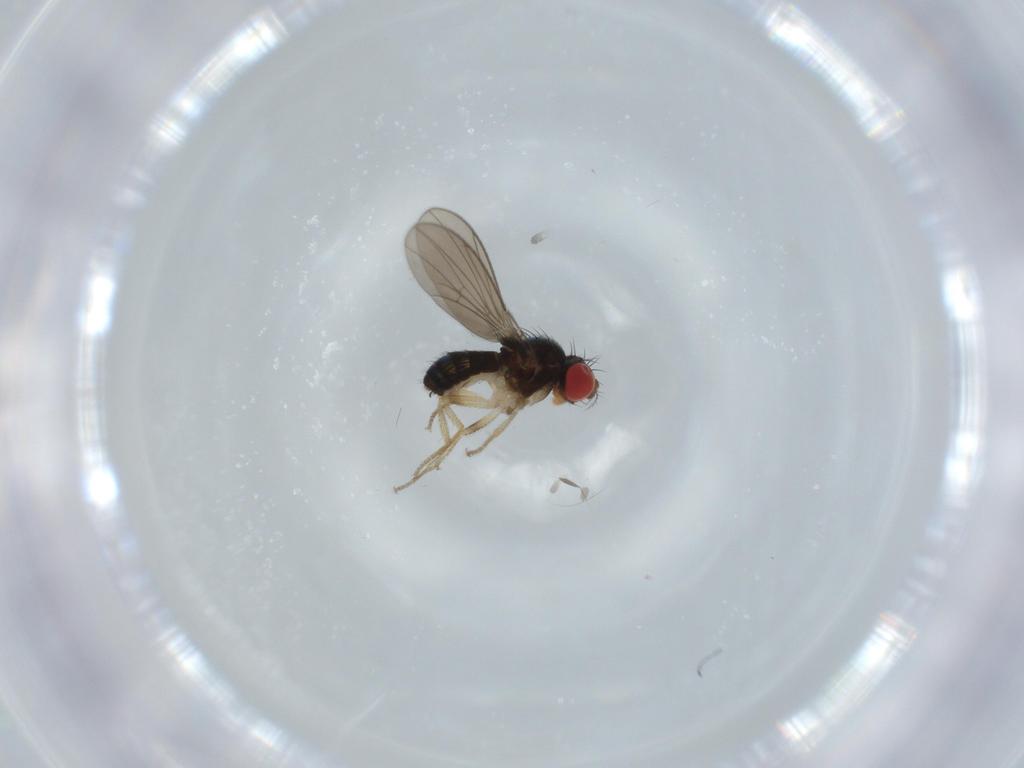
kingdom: Animalia
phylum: Arthropoda
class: Insecta
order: Diptera
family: Drosophilidae
